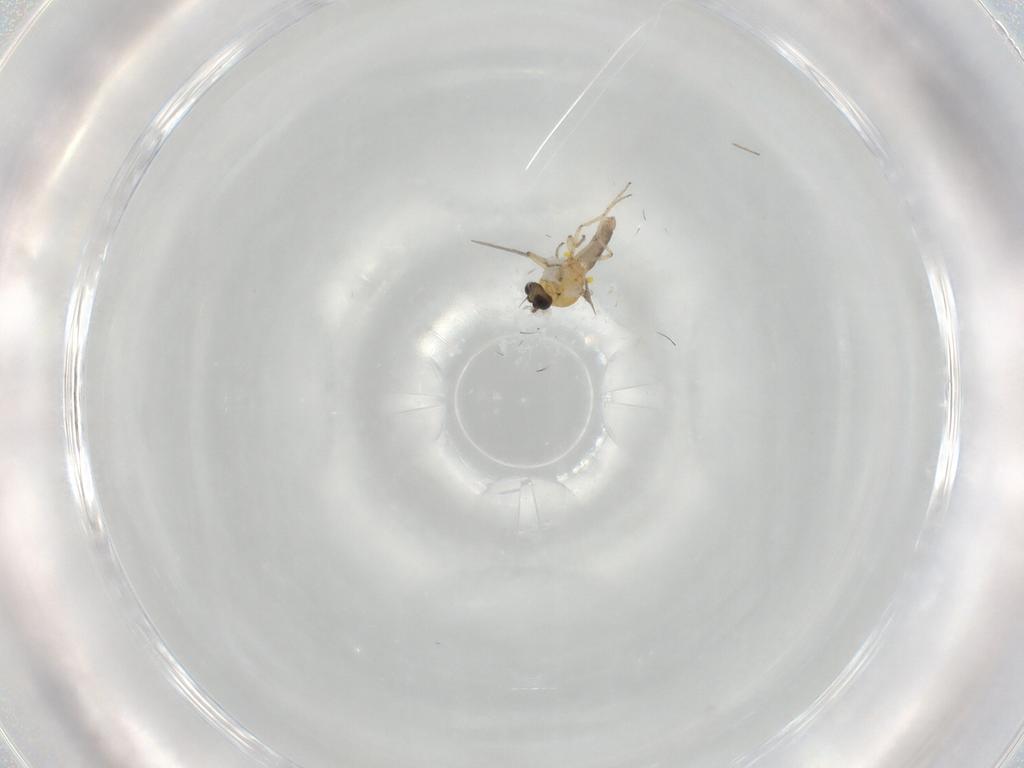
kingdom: Animalia
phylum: Arthropoda
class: Insecta
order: Diptera
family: Ceratopogonidae
